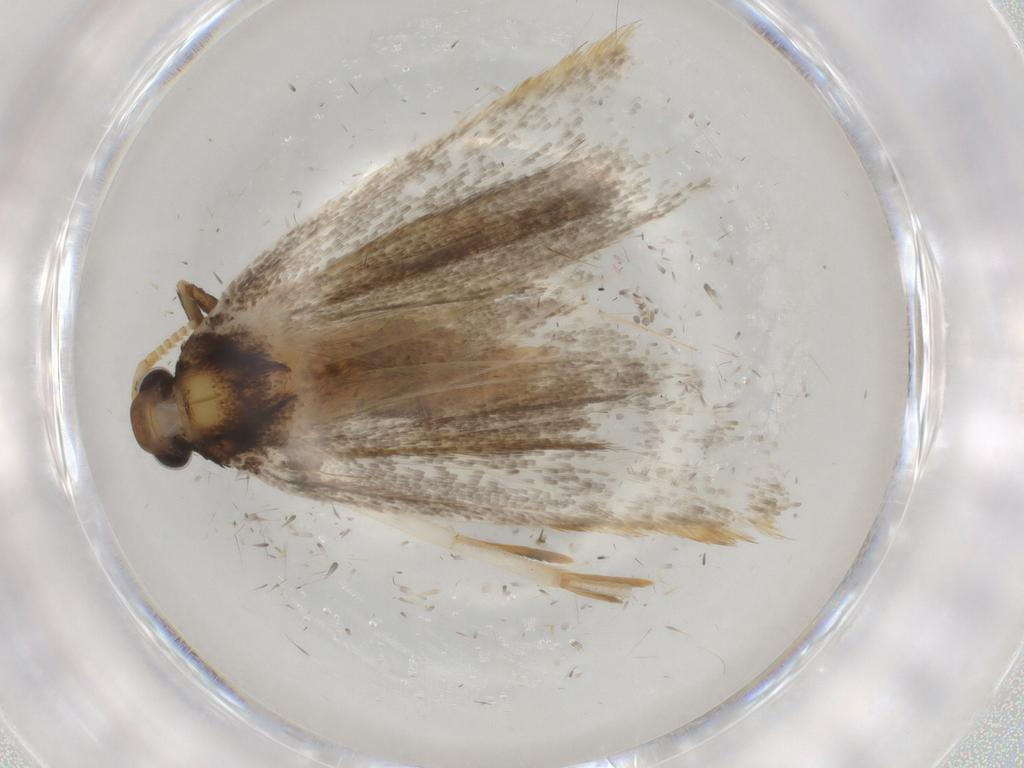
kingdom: Animalia
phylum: Arthropoda
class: Insecta
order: Lepidoptera
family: Lecithoceridae
